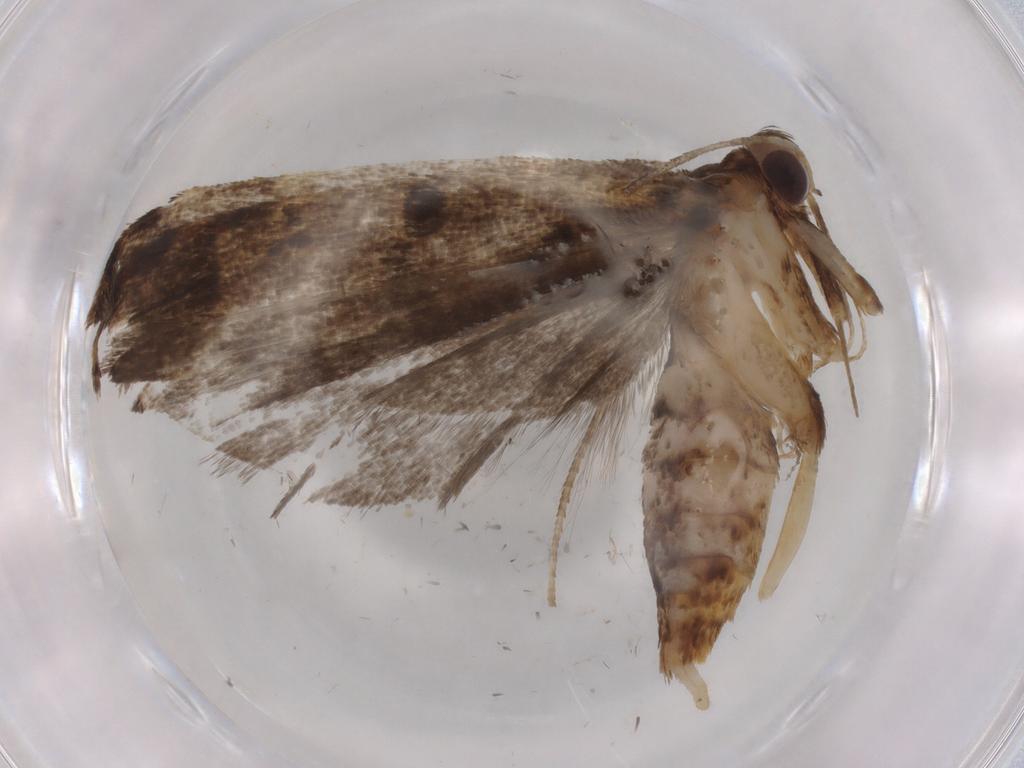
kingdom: Animalia
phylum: Arthropoda
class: Insecta
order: Lepidoptera
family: Autostichidae
